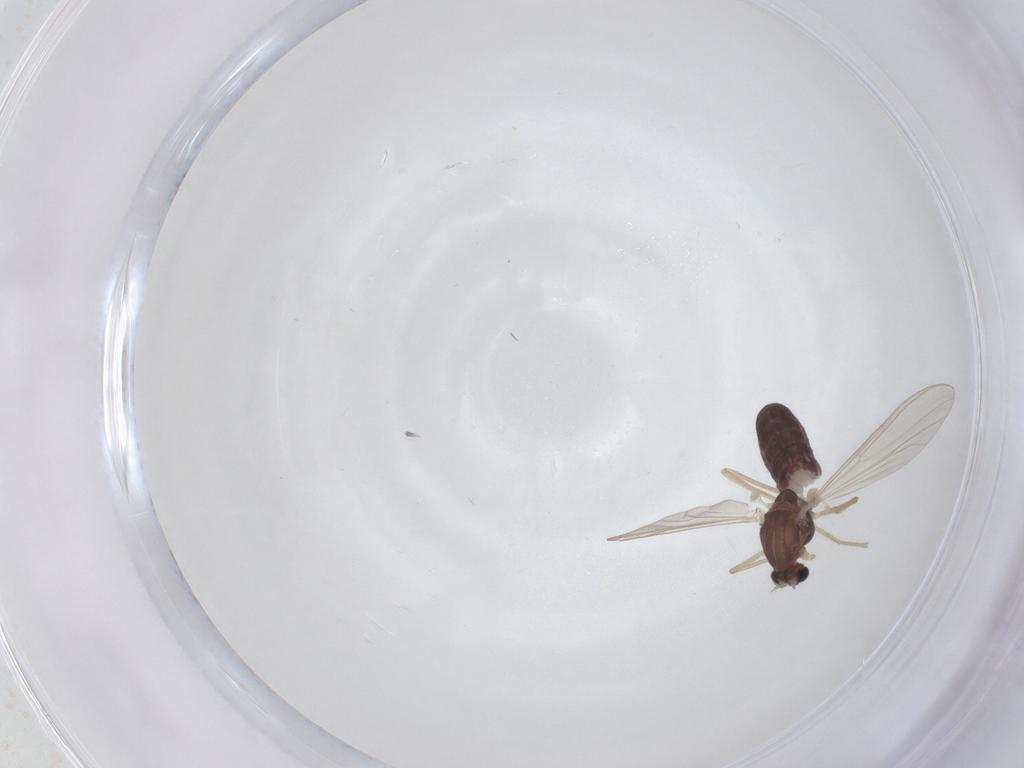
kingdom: Animalia
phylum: Arthropoda
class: Insecta
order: Diptera
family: Chironomidae
